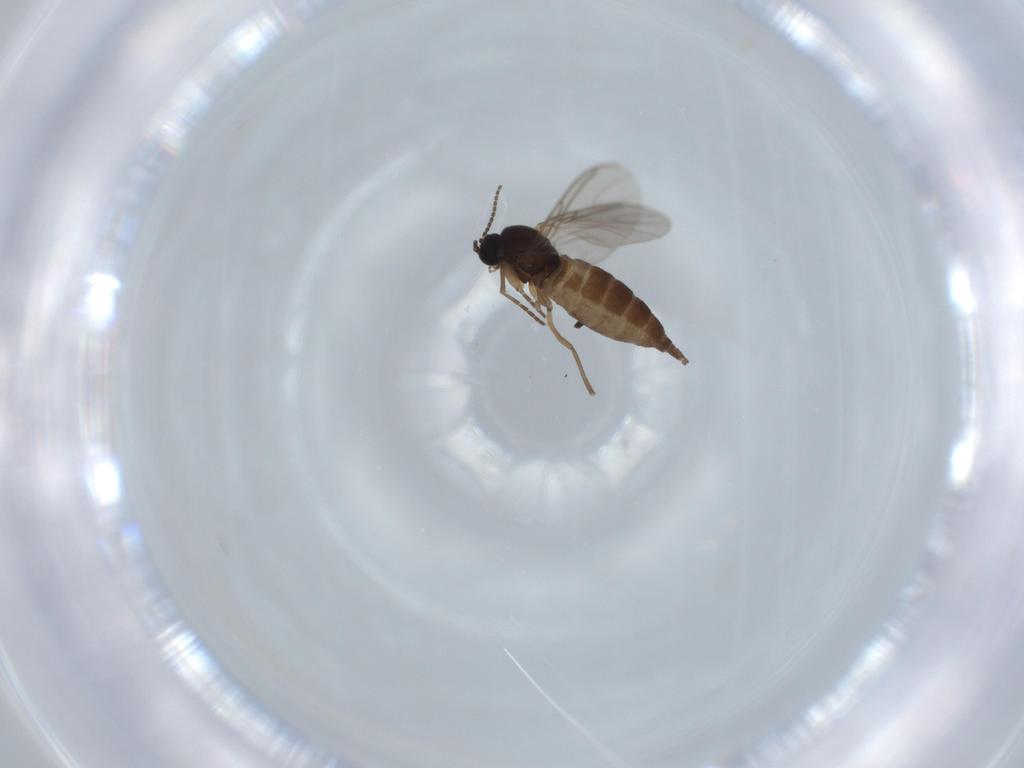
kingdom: Animalia
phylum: Arthropoda
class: Insecta
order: Diptera
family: Sciaridae
